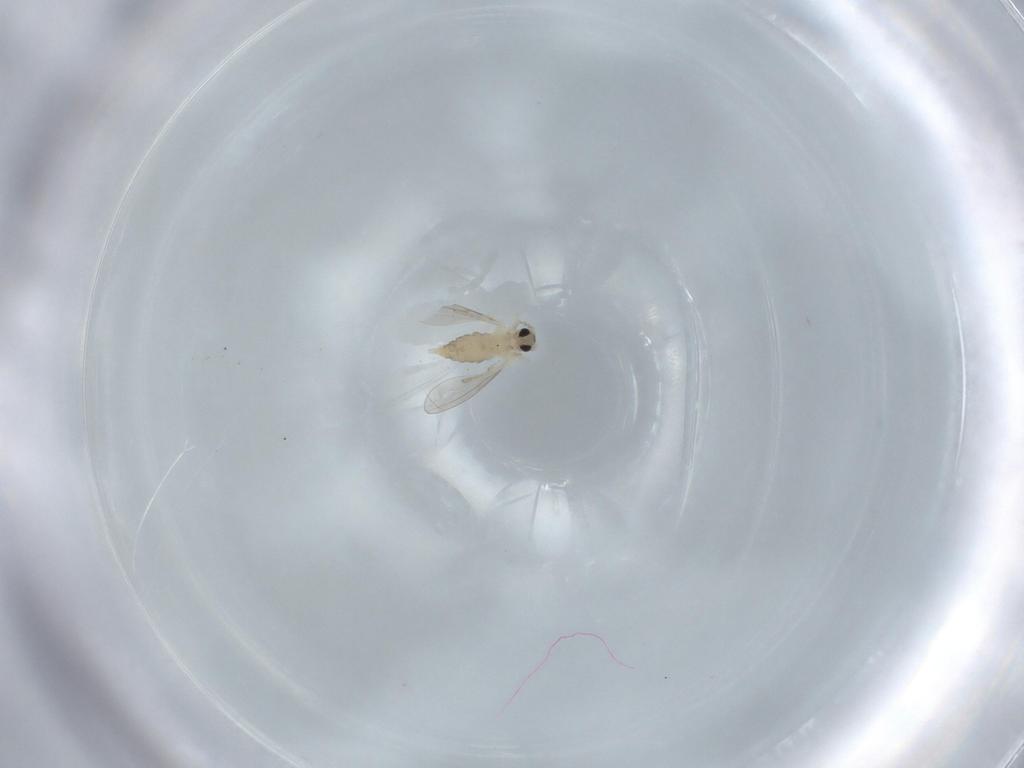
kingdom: Animalia
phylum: Arthropoda
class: Insecta
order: Diptera
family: Cecidomyiidae
